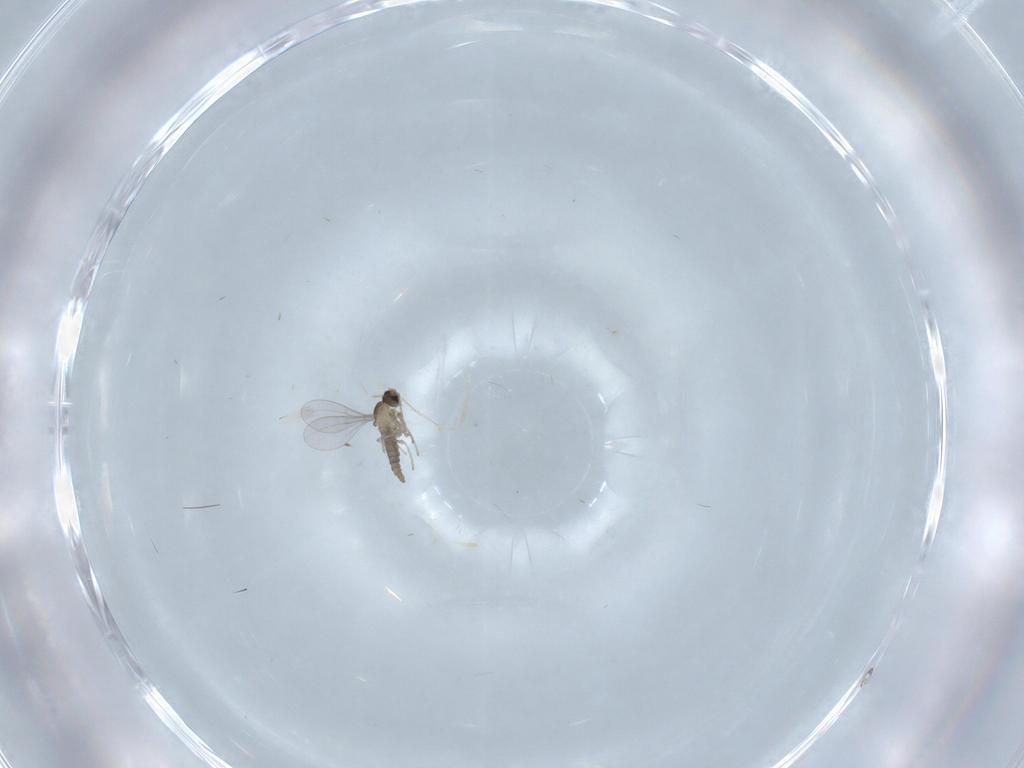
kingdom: Animalia
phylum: Arthropoda
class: Insecta
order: Diptera
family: Cecidomyiidae
